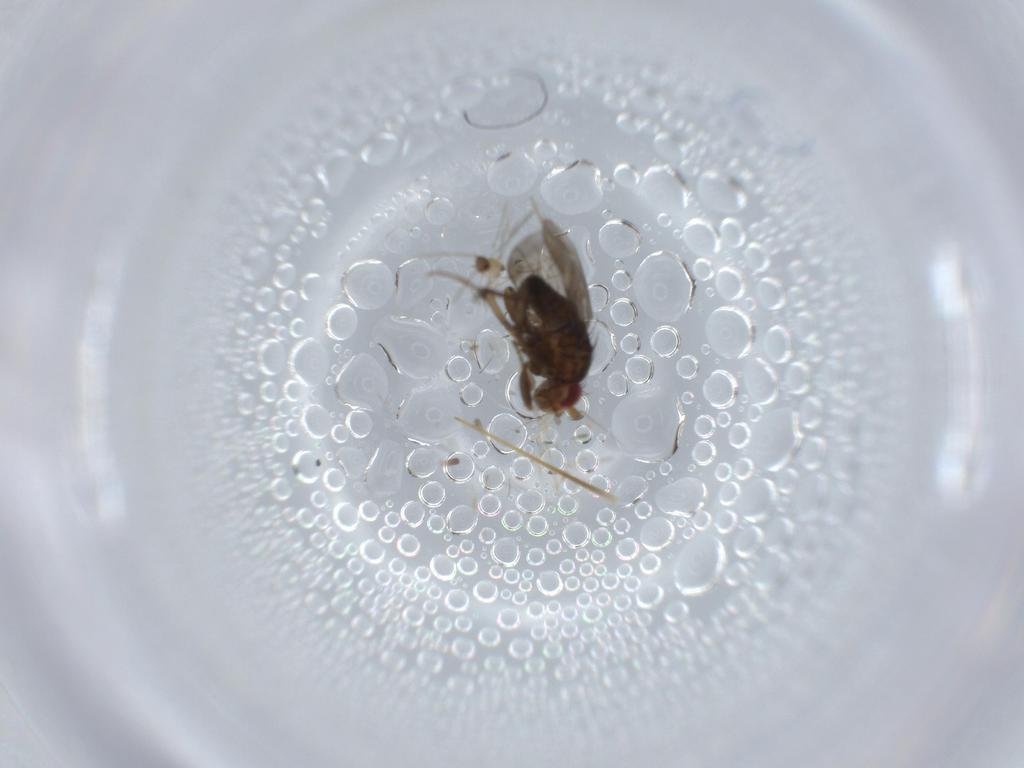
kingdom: Animalia
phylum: Arthropoda
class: Insecta
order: Diptera
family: Sphaeroceridae
